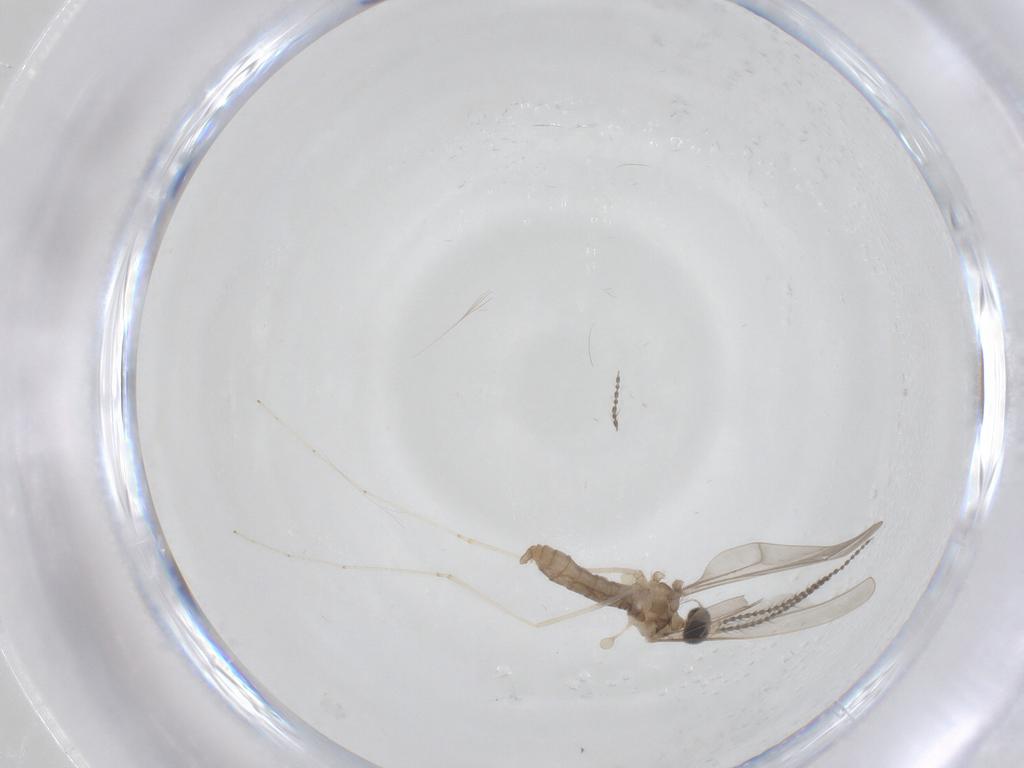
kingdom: Animalia
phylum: Arthropoda
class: Insecta
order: Diptera
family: Cecidomyiidae
